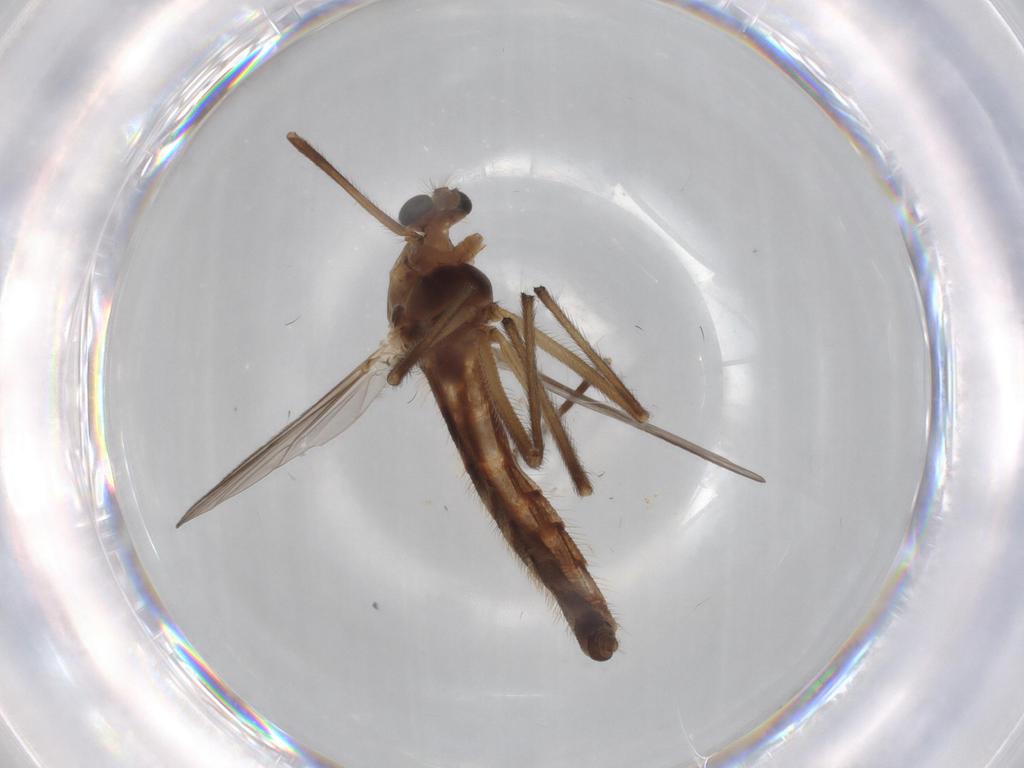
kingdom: Animalia
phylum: Arthropoda
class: Insecta
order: Diptera
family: Chironomidae
